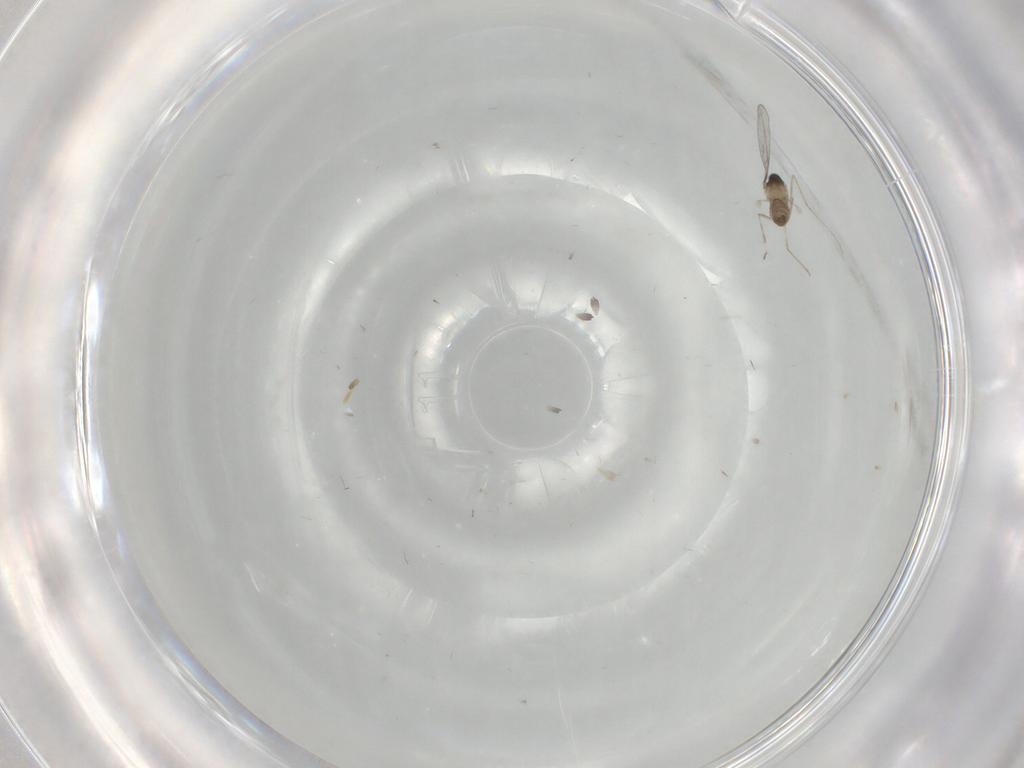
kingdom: Animalia
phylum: Arthropoda
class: Insecta
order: Diptera
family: Cecidomyiidae
